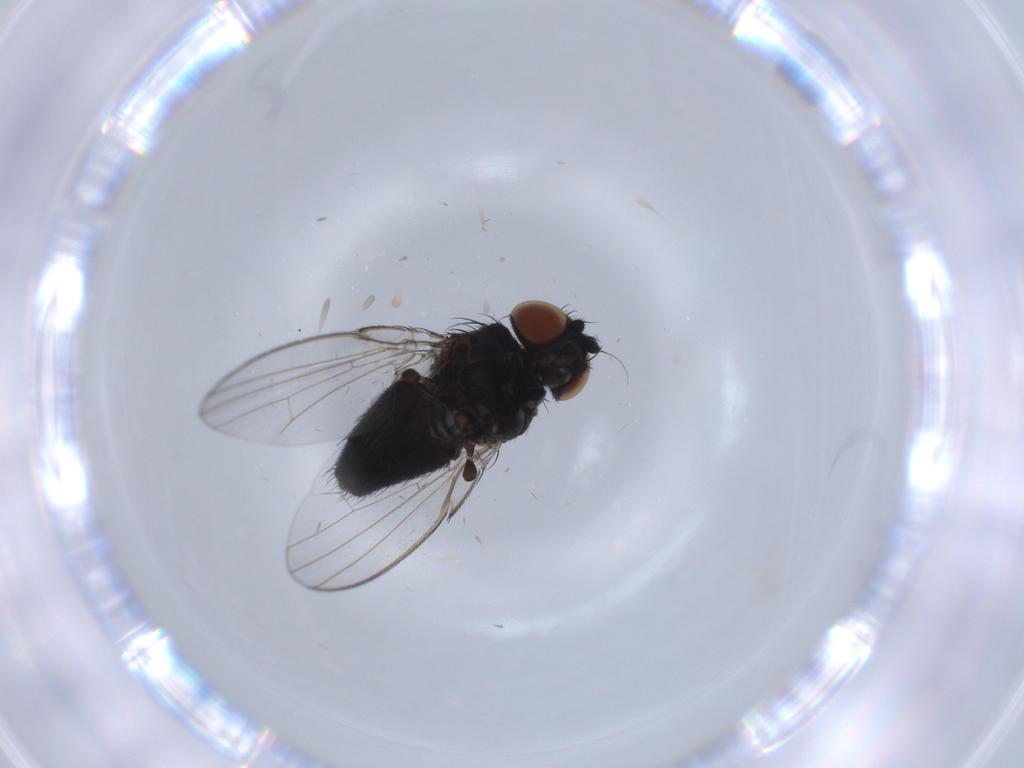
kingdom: Animalia
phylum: Arthropoda
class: Insecta
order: Diptera
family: Milichiidae
